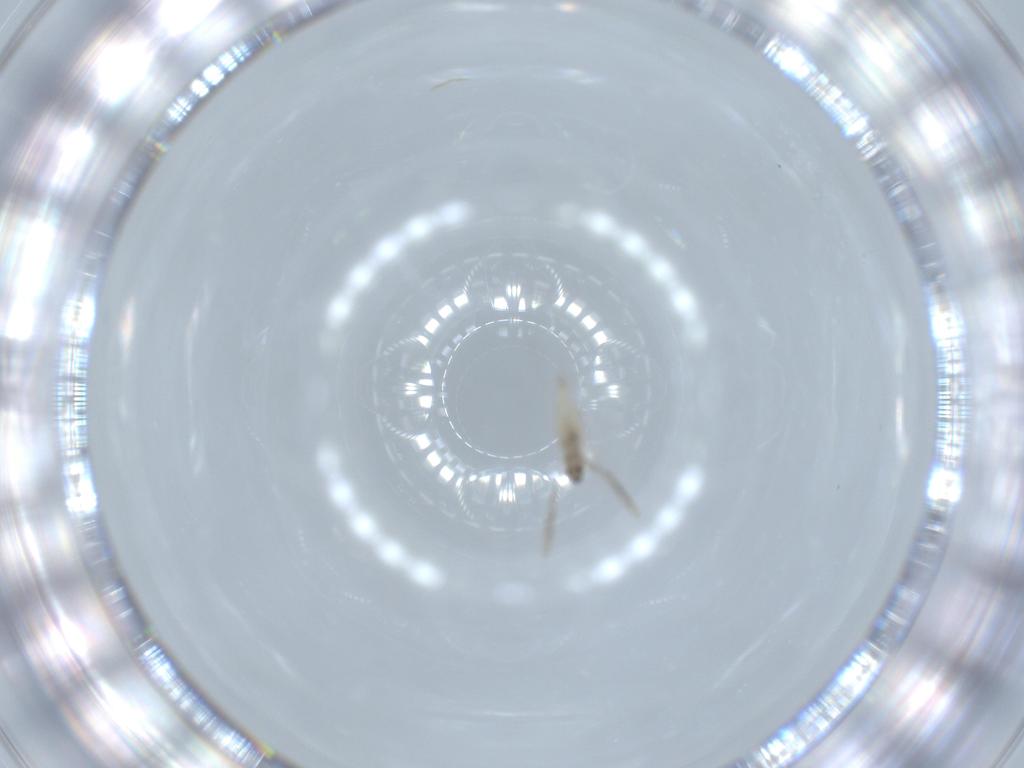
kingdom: Animalia
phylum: Arthropoda
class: Insecta
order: Diptera
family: Cecidomyiidae
